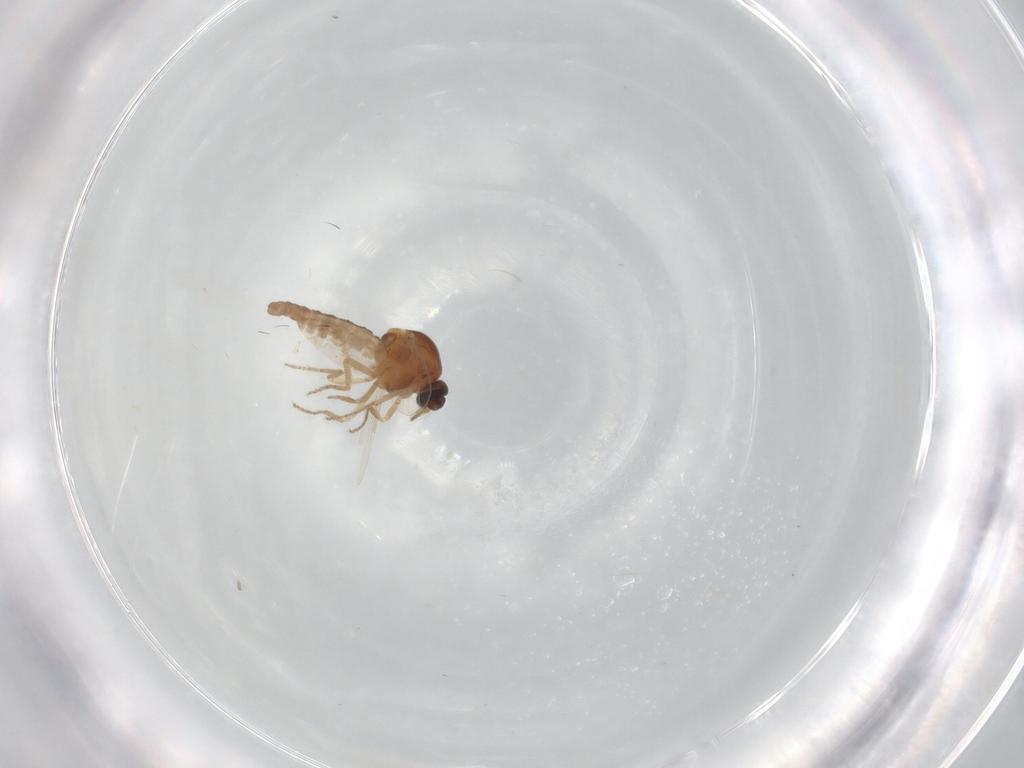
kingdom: Animalia
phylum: Arthropoda
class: Insecta
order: Diptera
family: Ceratopogonidae
